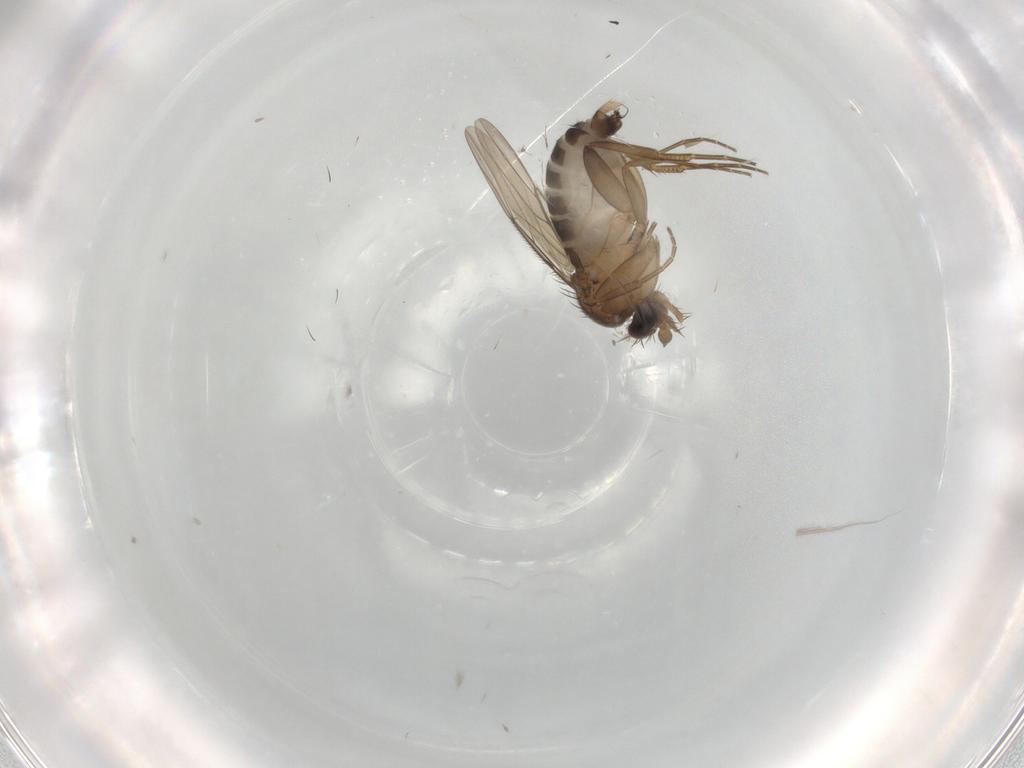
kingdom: Animalia
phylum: Arthropoda
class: Insecta
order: Diptera
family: Phoridae
